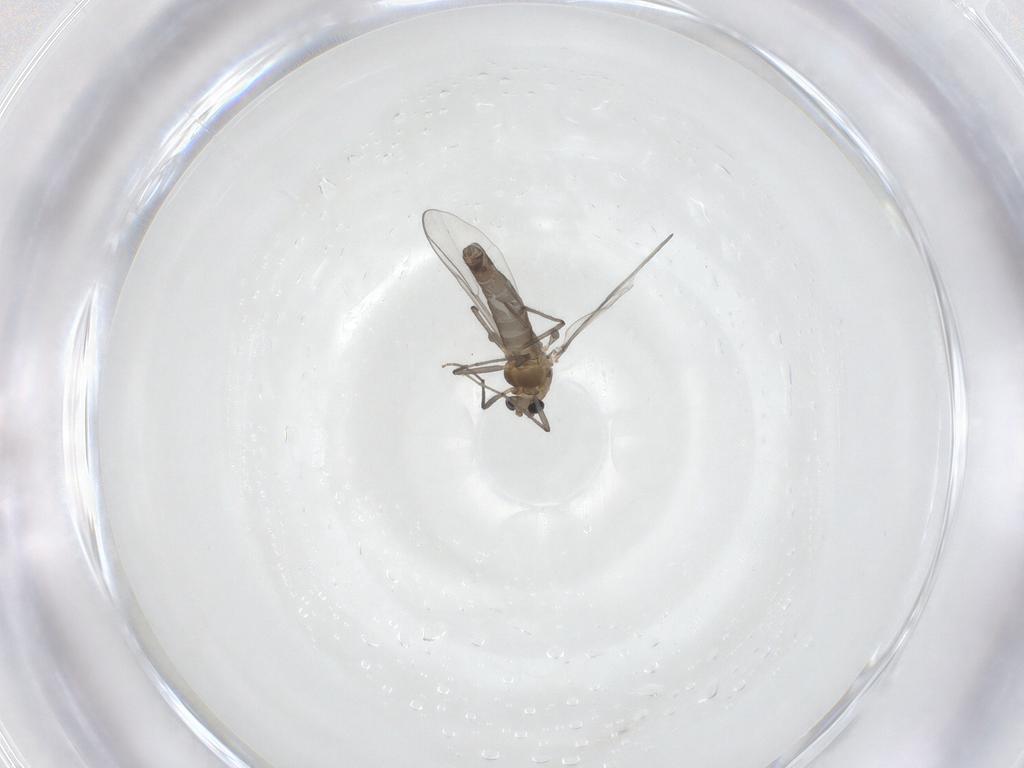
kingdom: Animalia
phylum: Arthropoda
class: Insecta
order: Diptera
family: Chironomidae
